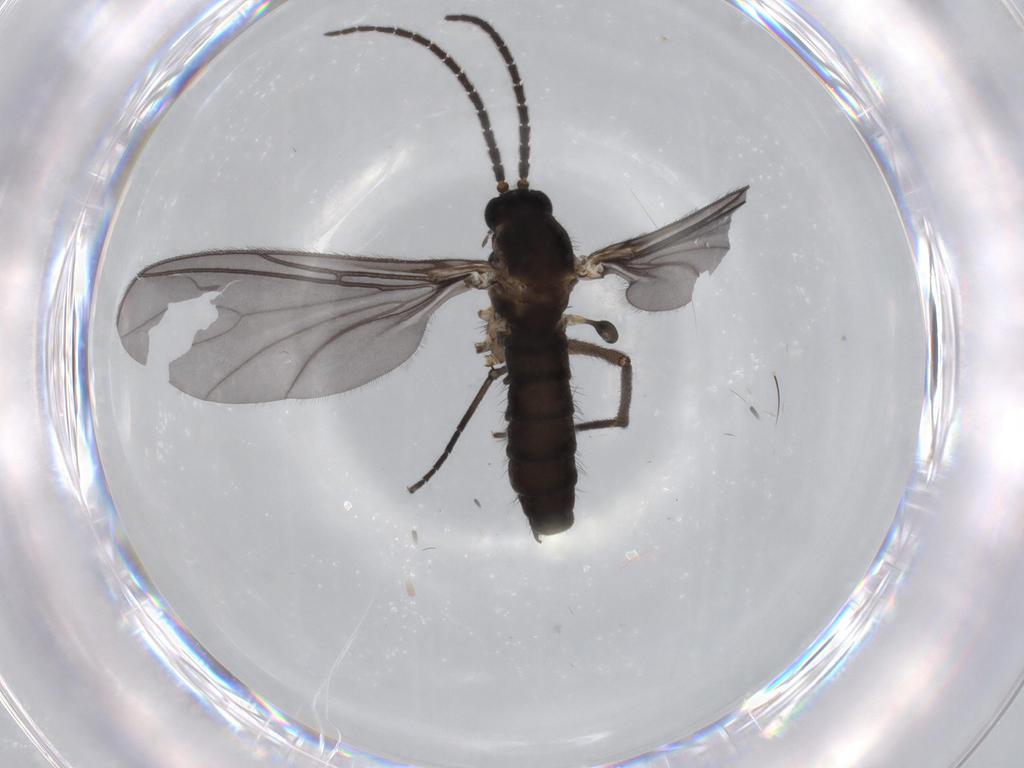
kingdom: Animalia
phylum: Arthropoda
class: Insecta
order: Diptera
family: Sciaridae
